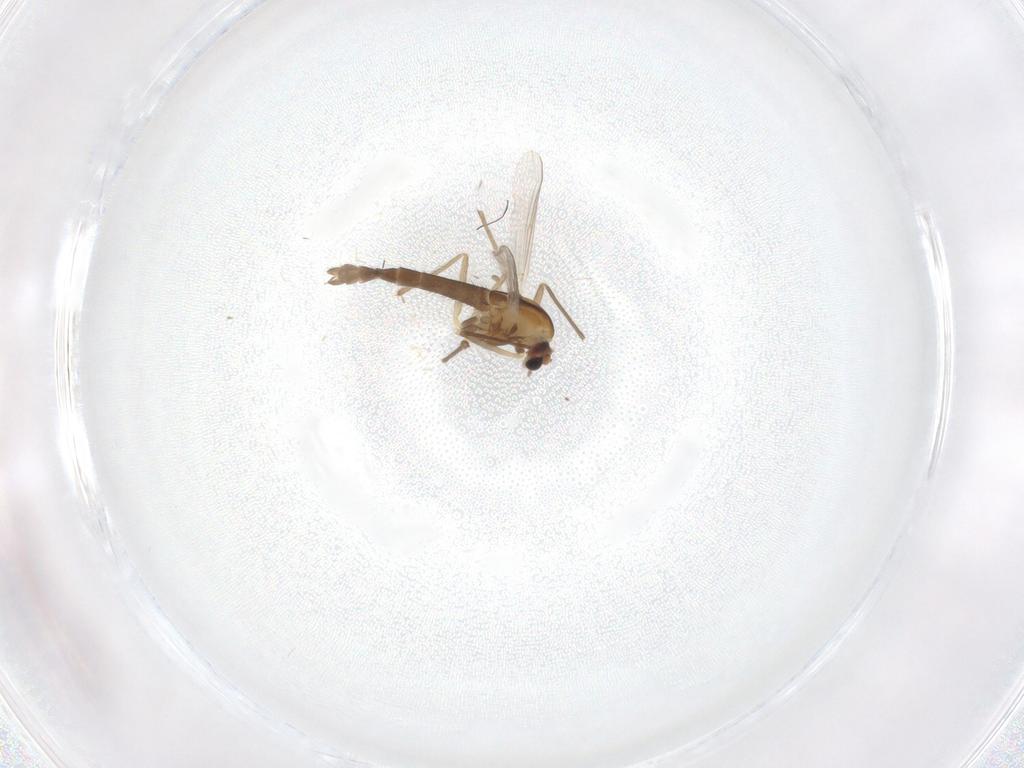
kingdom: Animalia
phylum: Arthropoda
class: Insecta
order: Diptera
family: Chironomidae
